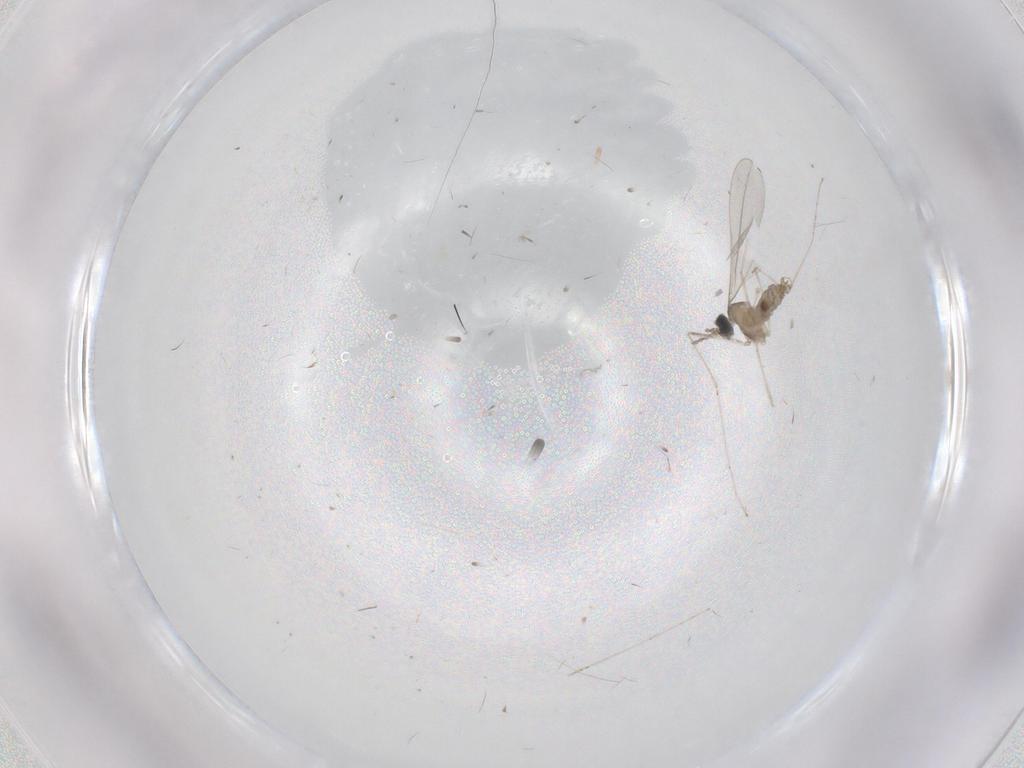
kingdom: Animalia
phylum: Arthropoda
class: Insecta
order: Diptera
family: Cecidomyiidae
